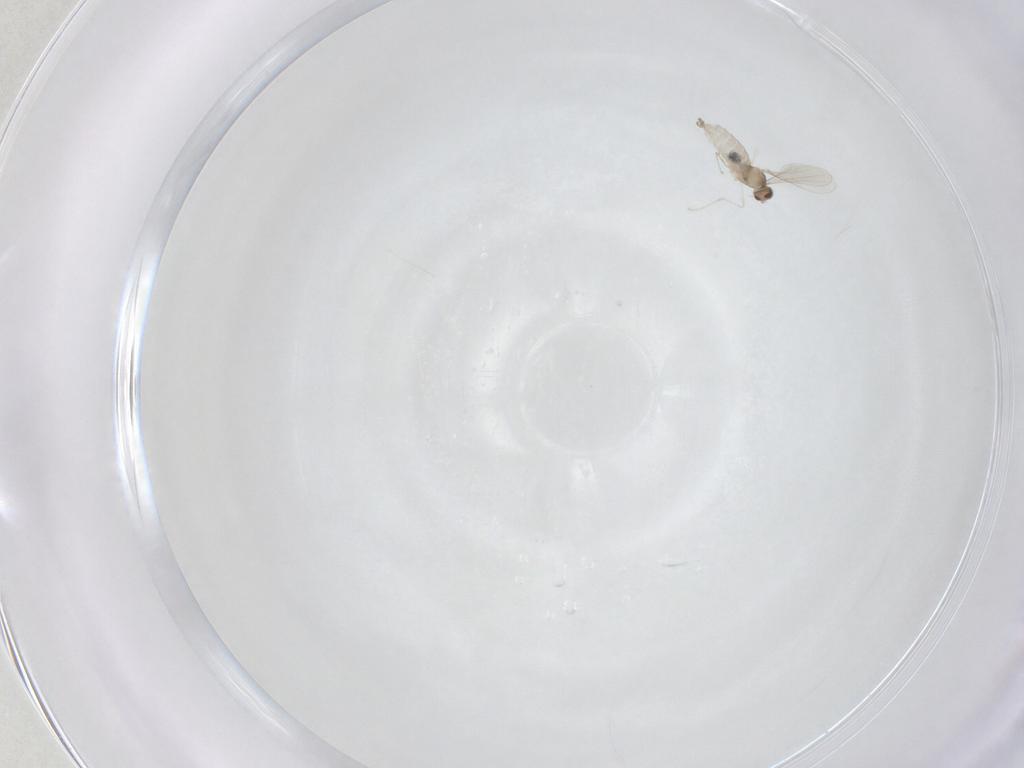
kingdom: Animalia
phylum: Arthropoda
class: Insecta
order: Diptera
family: Cecidomyiidae
